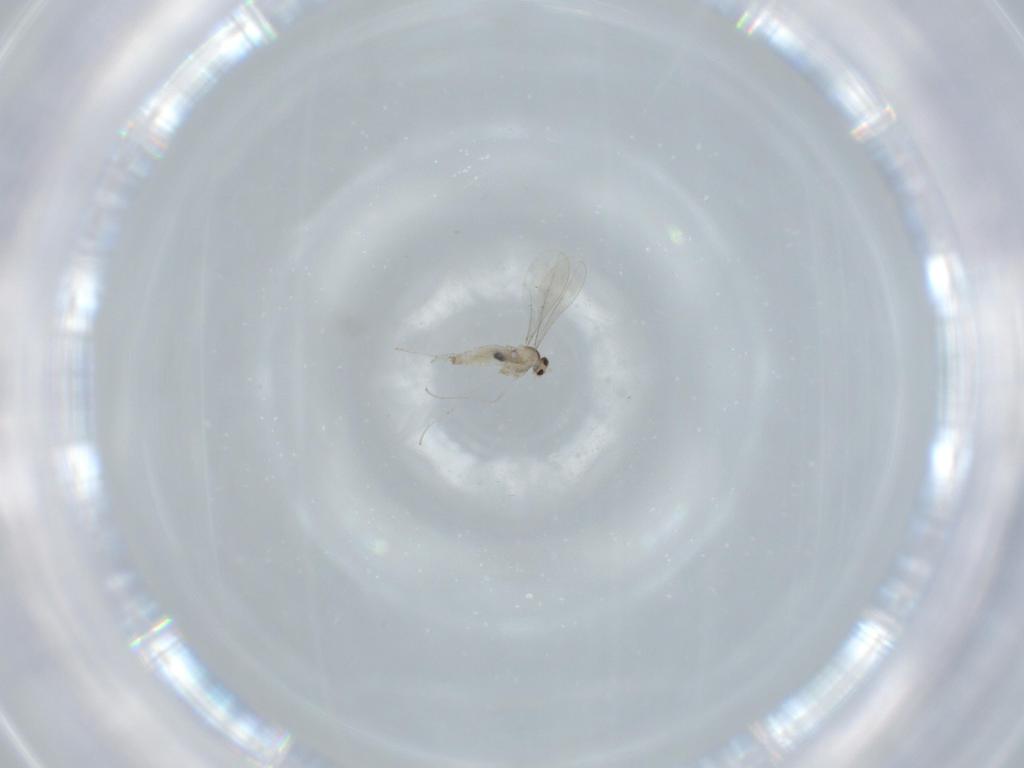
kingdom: Animalia
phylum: Arthropoda
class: Insecta
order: Diptera
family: Cecidomyiidae
